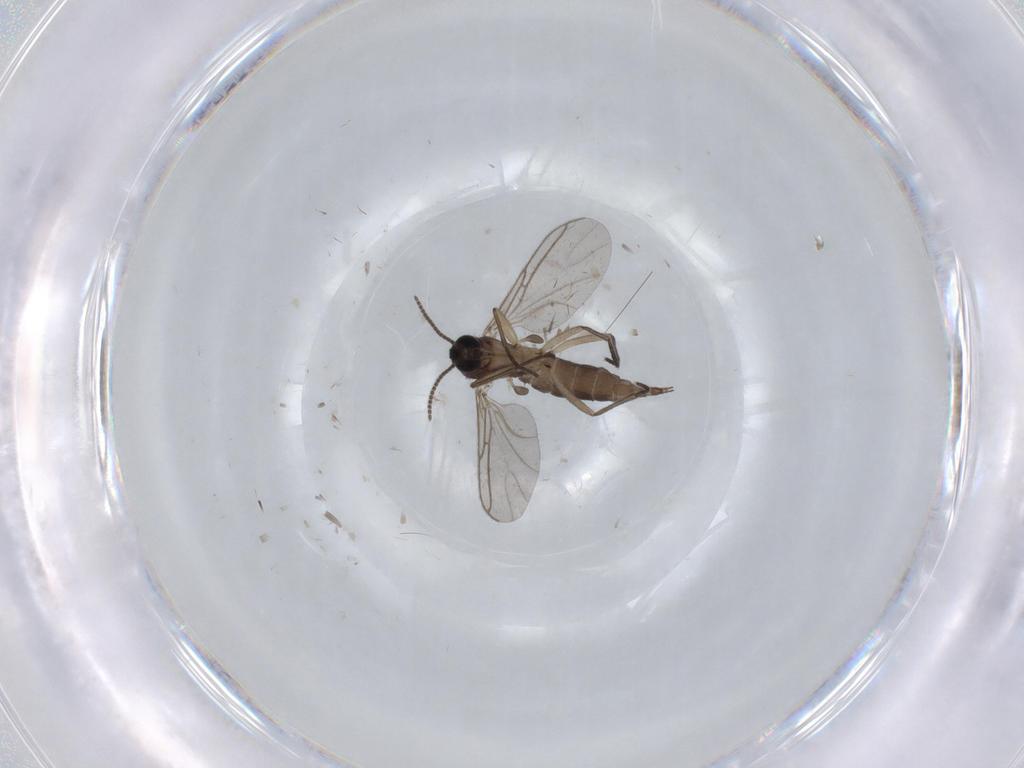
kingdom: Animalia
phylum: Arthropoda
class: Insecta
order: Diptera
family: Sciaridae
